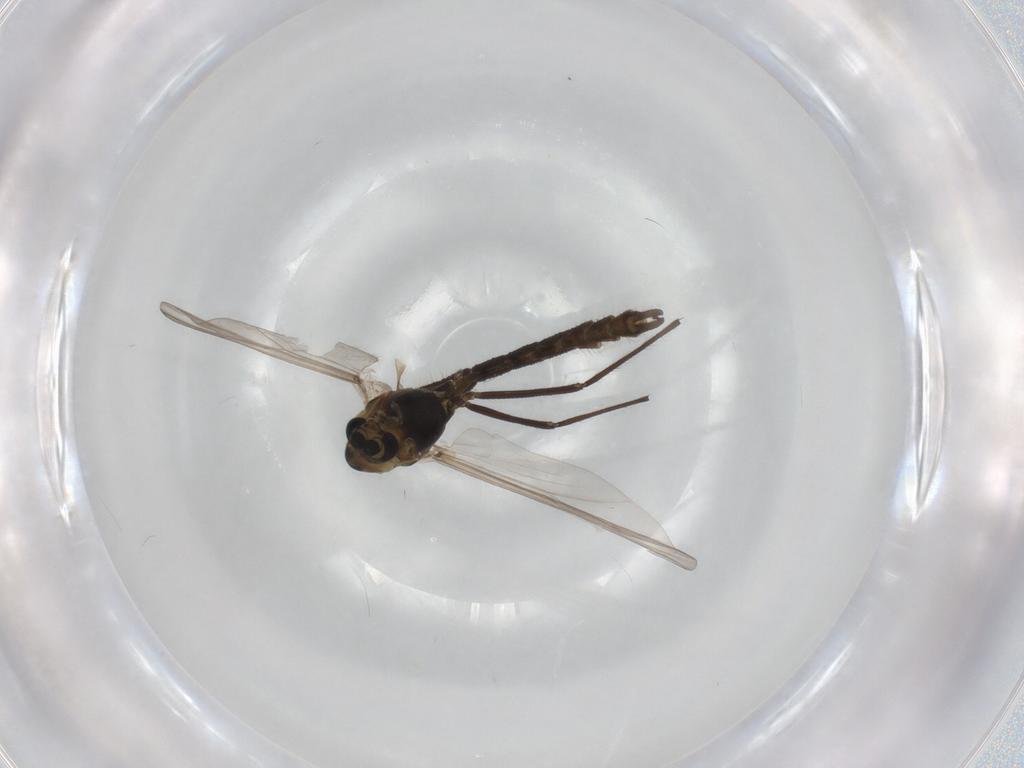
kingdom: Animalia
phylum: Arthropoda
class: Insecta
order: Diptera
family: Chironomidae
